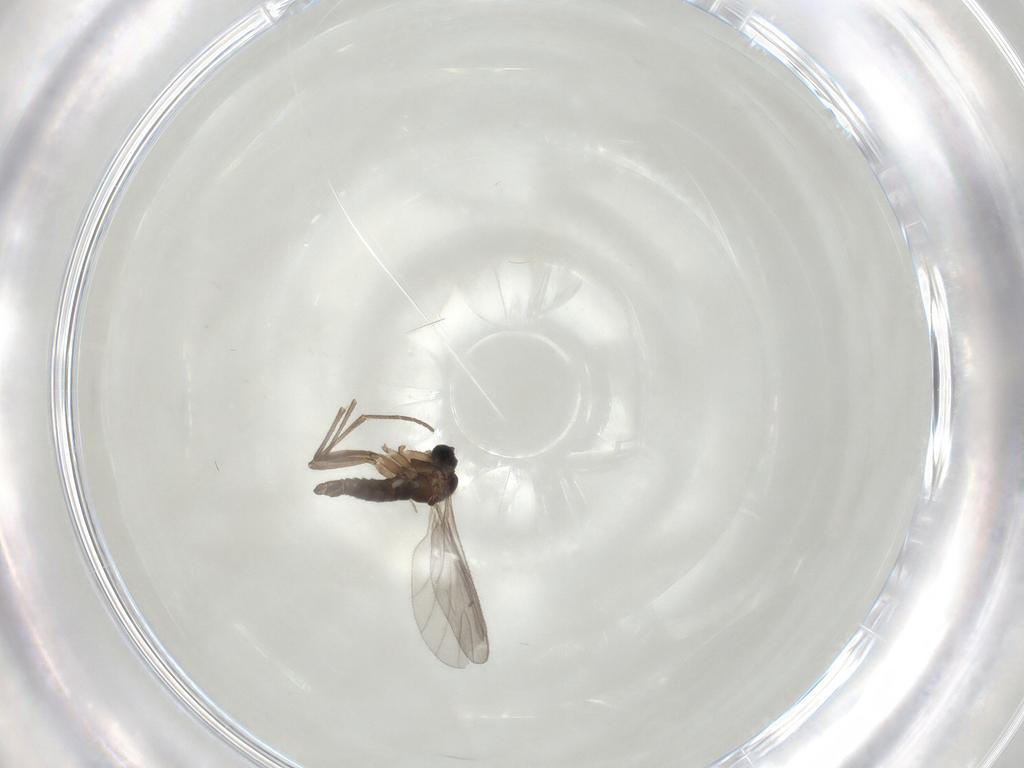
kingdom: Animalia
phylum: Arthropoda
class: Insecta
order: Diptera
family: Sciaridae
